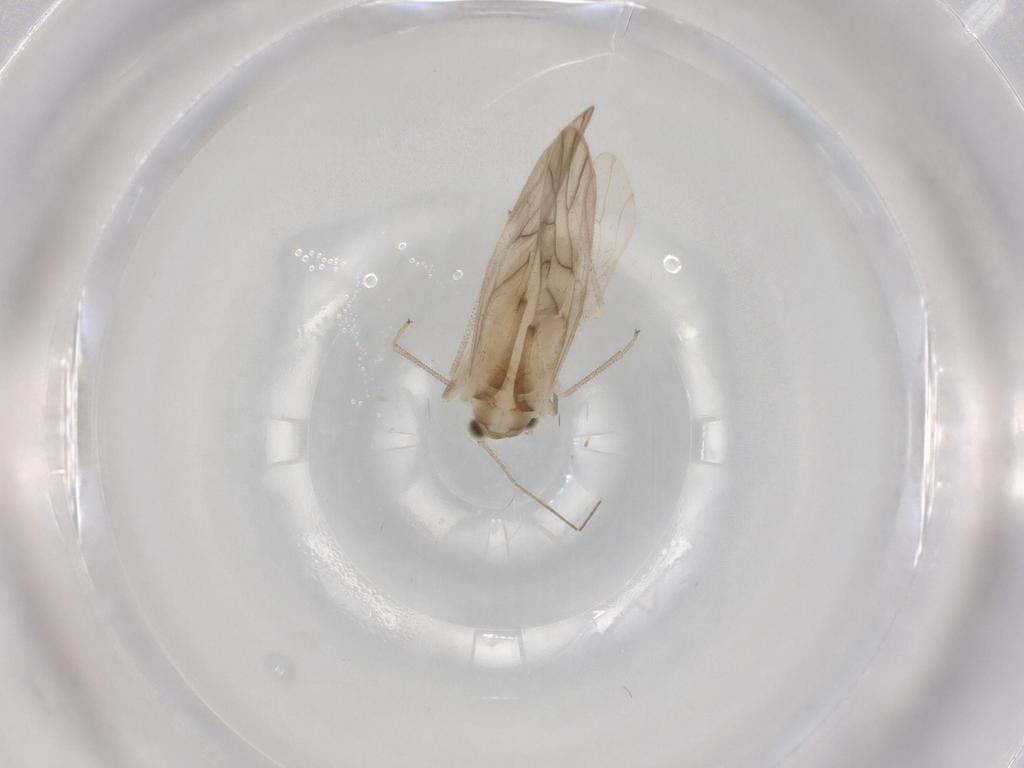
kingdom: Animalia
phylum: Arthropoda
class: Insecta
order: Psocodea
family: Caeciliusidae
